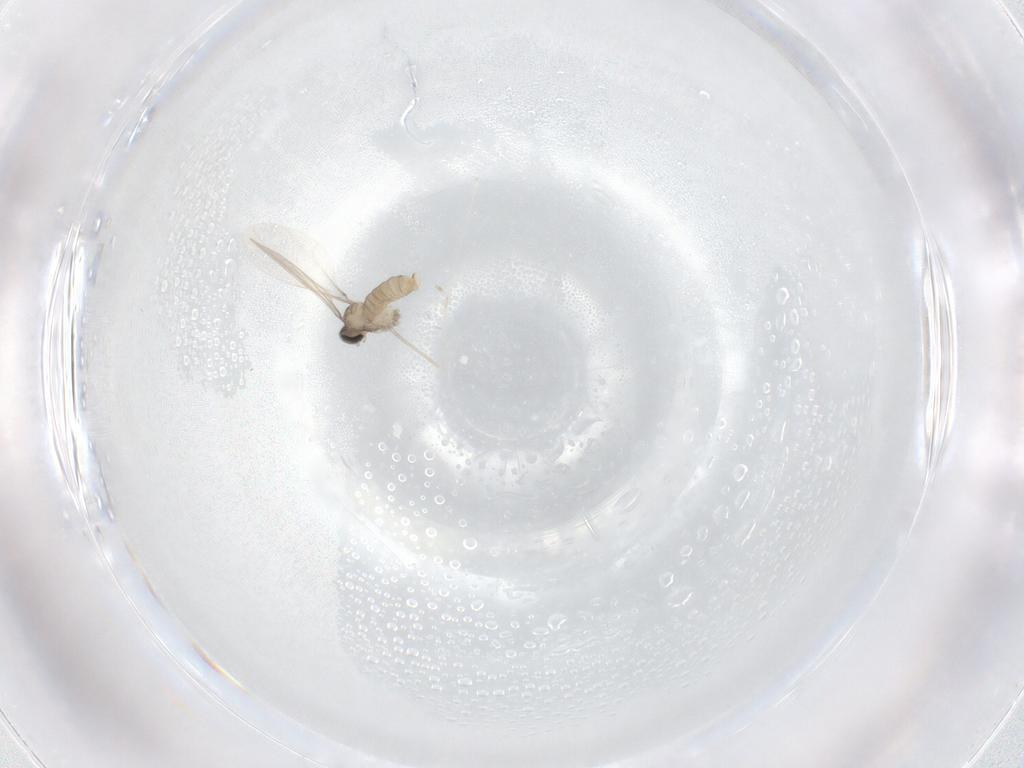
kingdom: Animalia
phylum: Arthropoda
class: Insecta
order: Diptera
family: Cecidomyiidae
